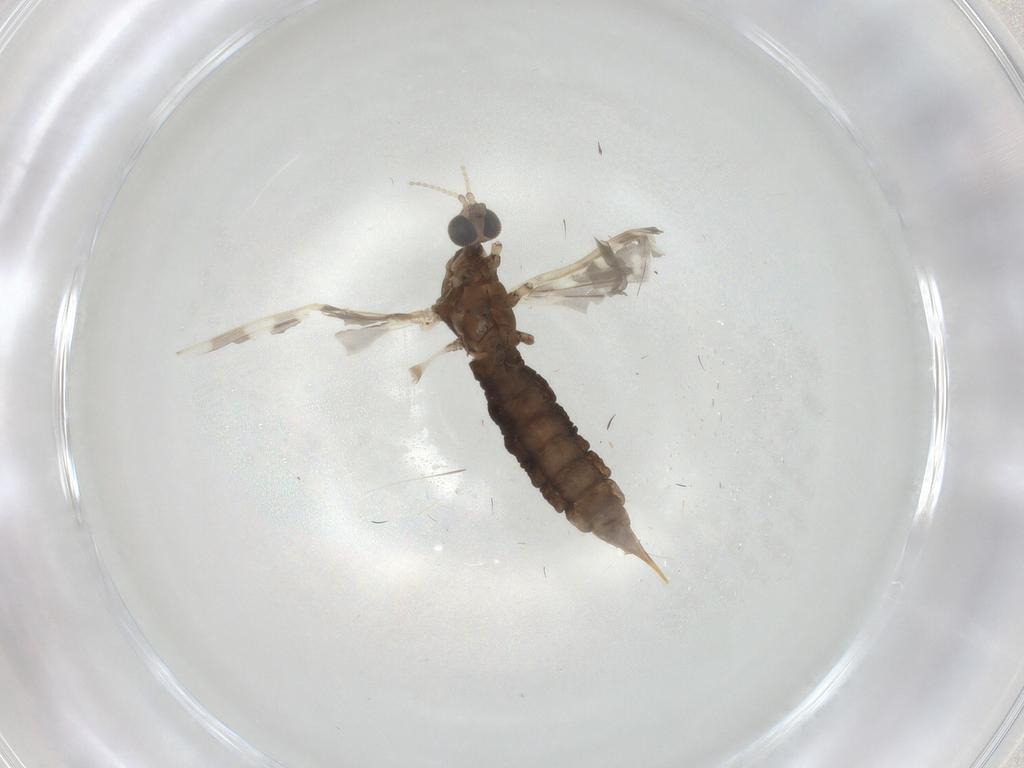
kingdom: Animalia
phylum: Arthropoda
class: Insecta
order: Diptera
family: Limoniidae
